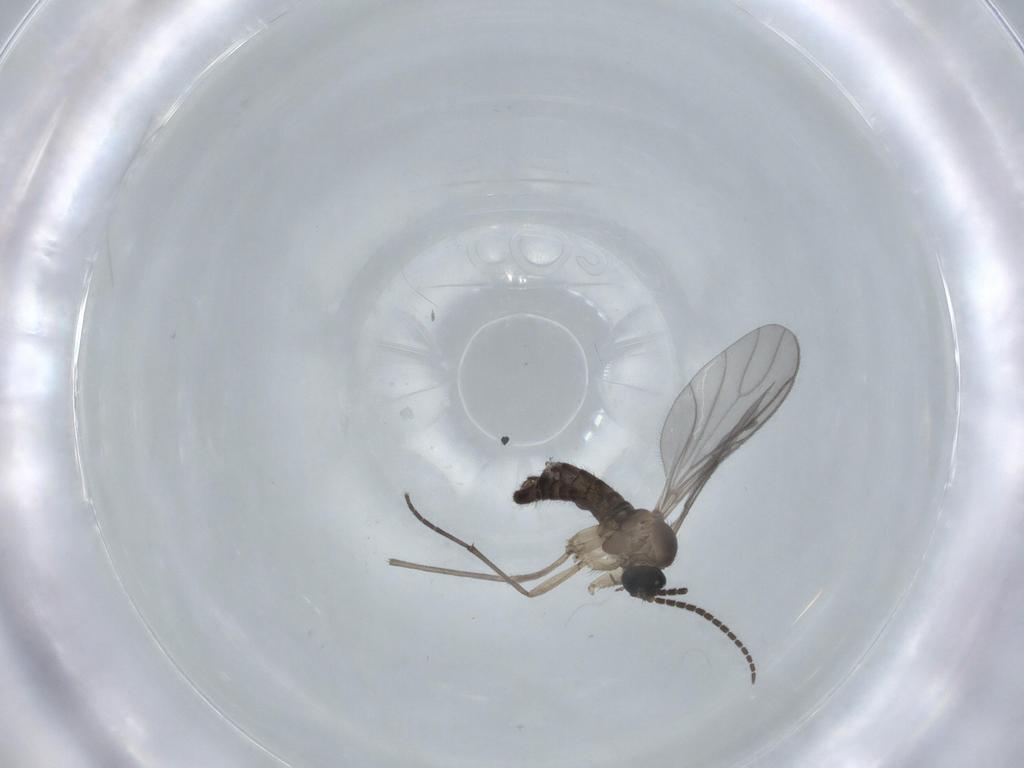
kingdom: Animalia
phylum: Arthropoda
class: Insecta
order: Diptera
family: Sciaridae
